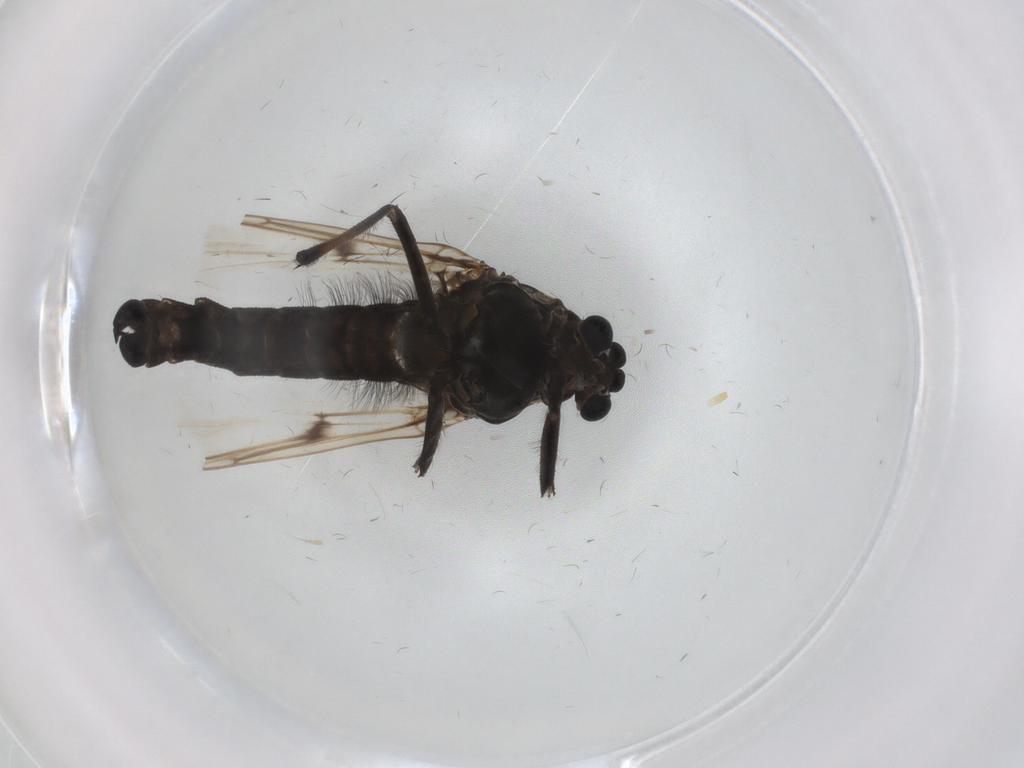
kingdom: Animalia
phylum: Arthropoda
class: Insecta
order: Diptera
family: Chironomidae
